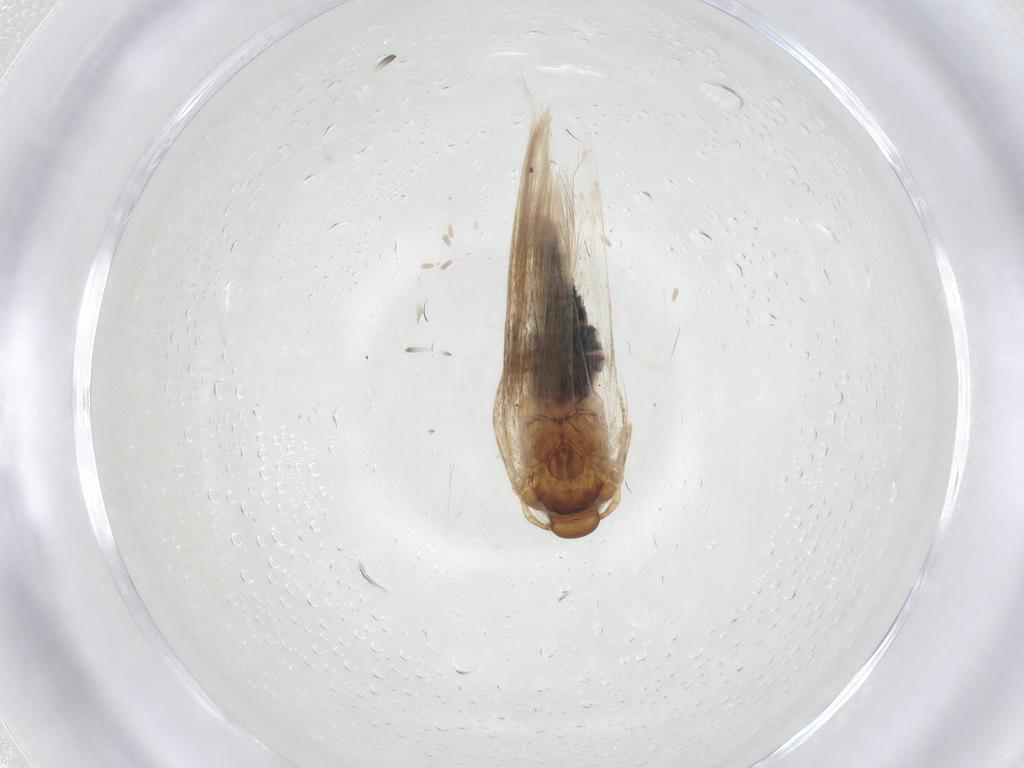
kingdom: Animalia
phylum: Arthropoda
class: Insecta
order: Lepidoptera
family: Cosmopterigidae
